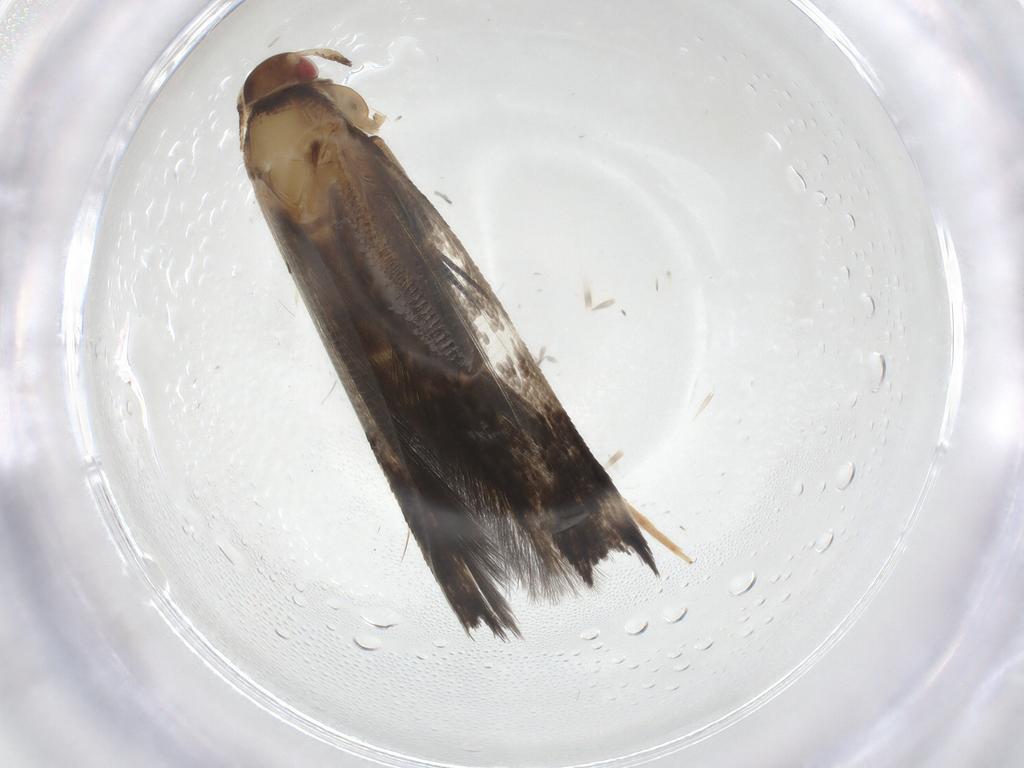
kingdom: Animalia
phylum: Arthropoda
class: Insecta
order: Lepidoptera
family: Cosmopterigidae
